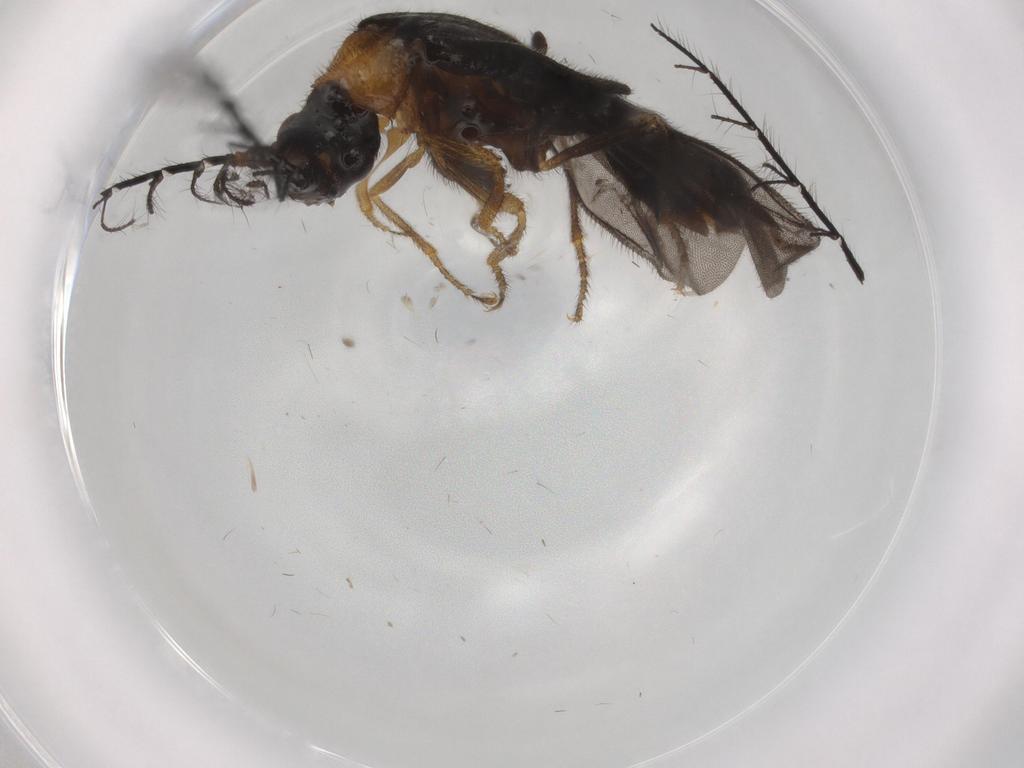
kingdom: Animalia
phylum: Arthropoda
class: Insecta
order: Coleoptera
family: Phengodidae
